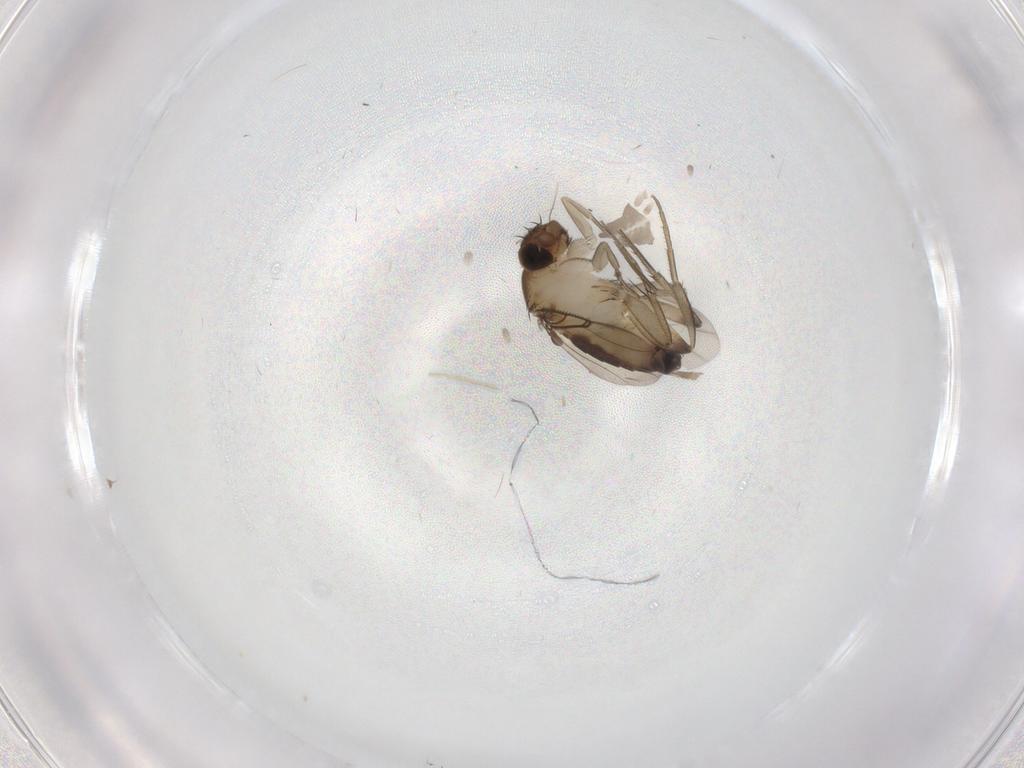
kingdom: Animalia
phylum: Arthropoda
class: Insecta
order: Diptera
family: Phoridae
